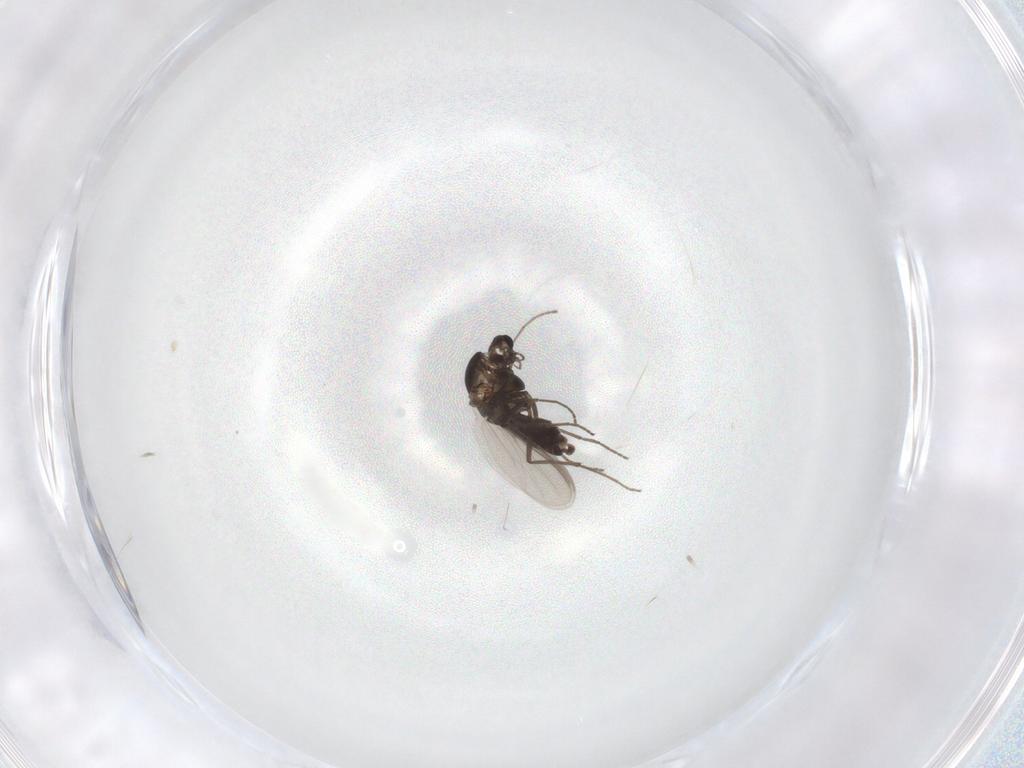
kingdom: Animalia
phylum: Arthropoda
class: Insecta
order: Diptera
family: Chironomidae
